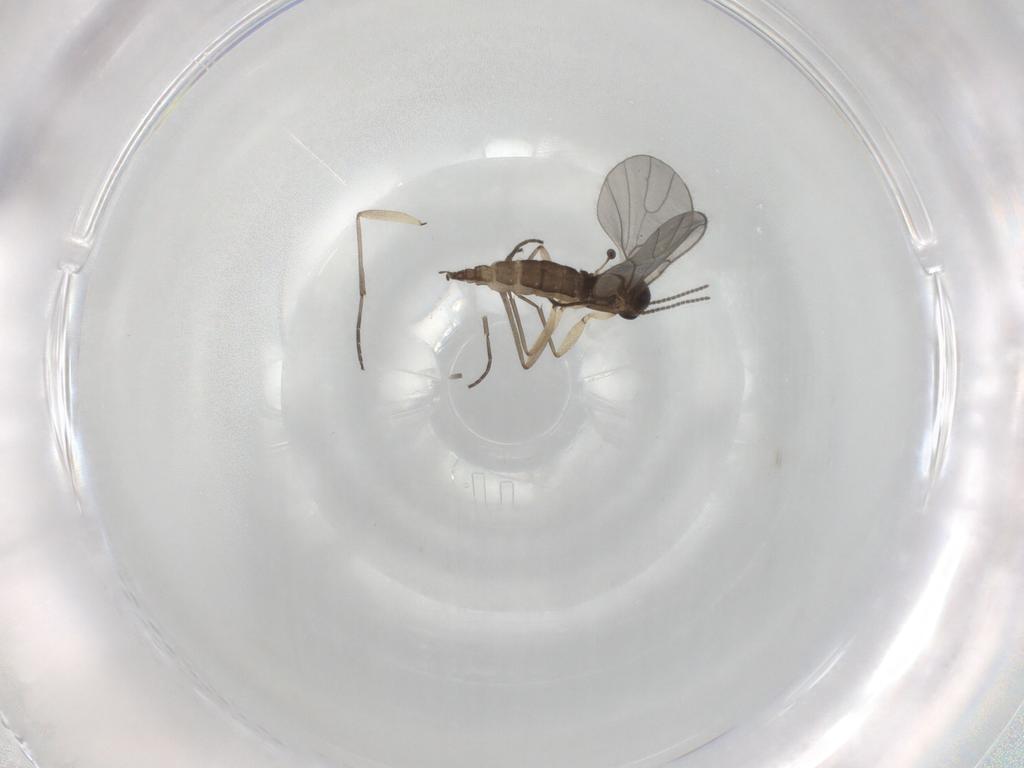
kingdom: Animalia
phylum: Arthropoda
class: Insecta
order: Diptera
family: Sciaridae
